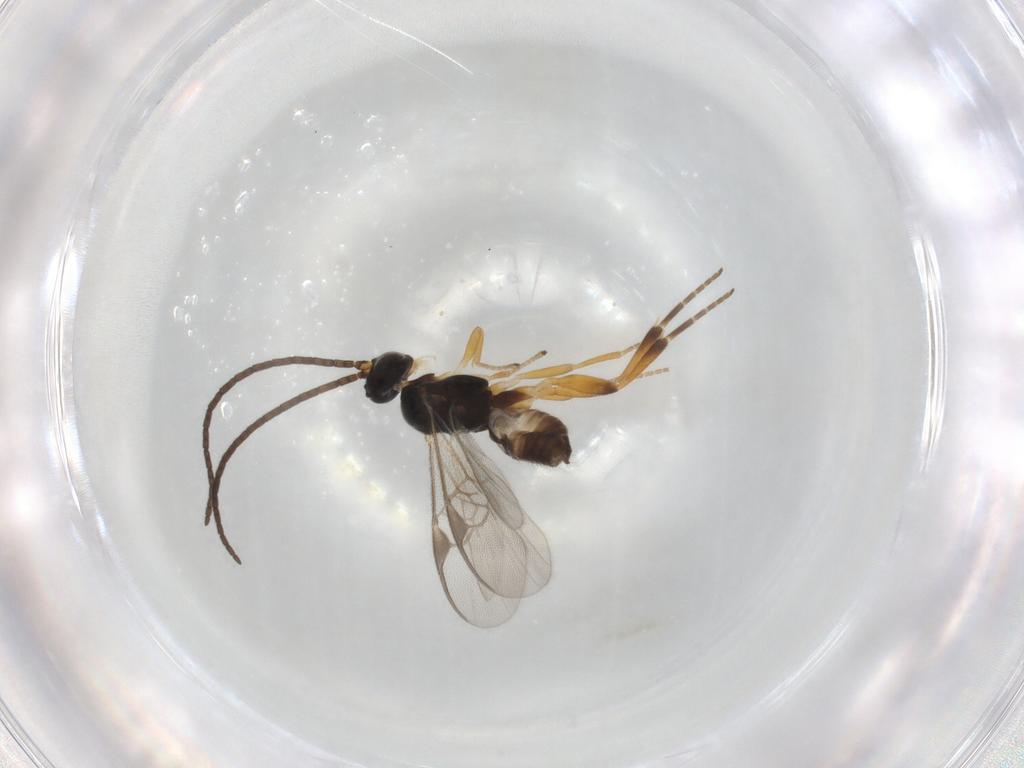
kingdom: Animalia
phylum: Arthropoda
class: Insecta
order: Hymenoptera
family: Braconidae
